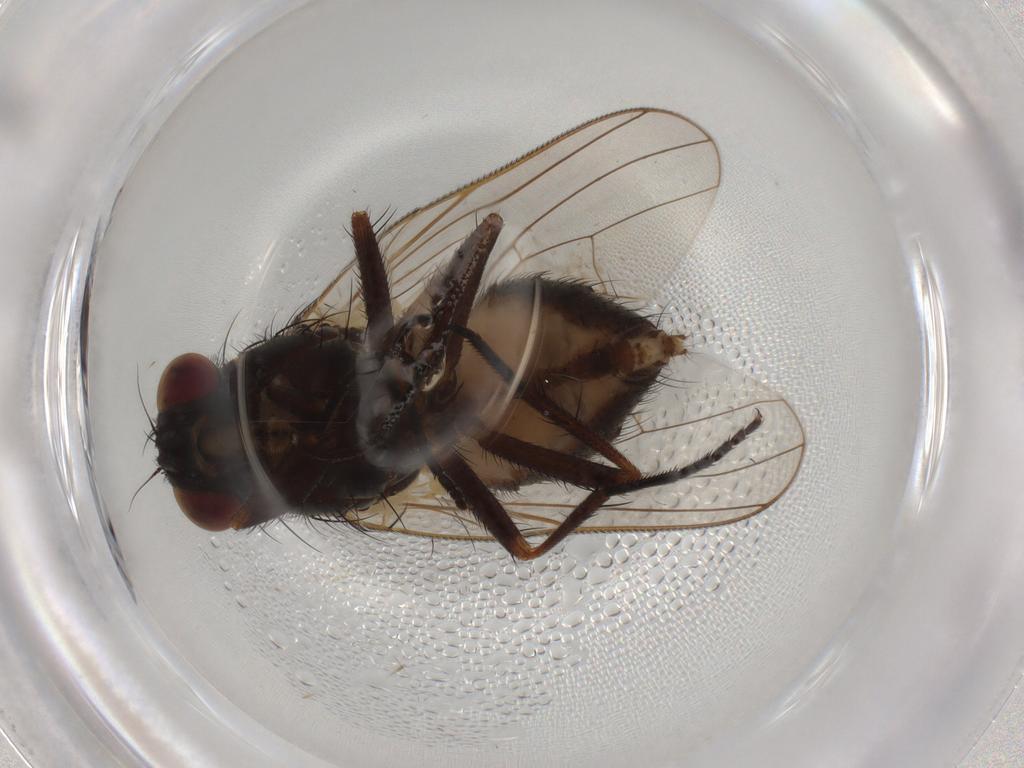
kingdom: Animalia
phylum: Arthropoda
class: Insecta
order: Diptera
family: Fannia
